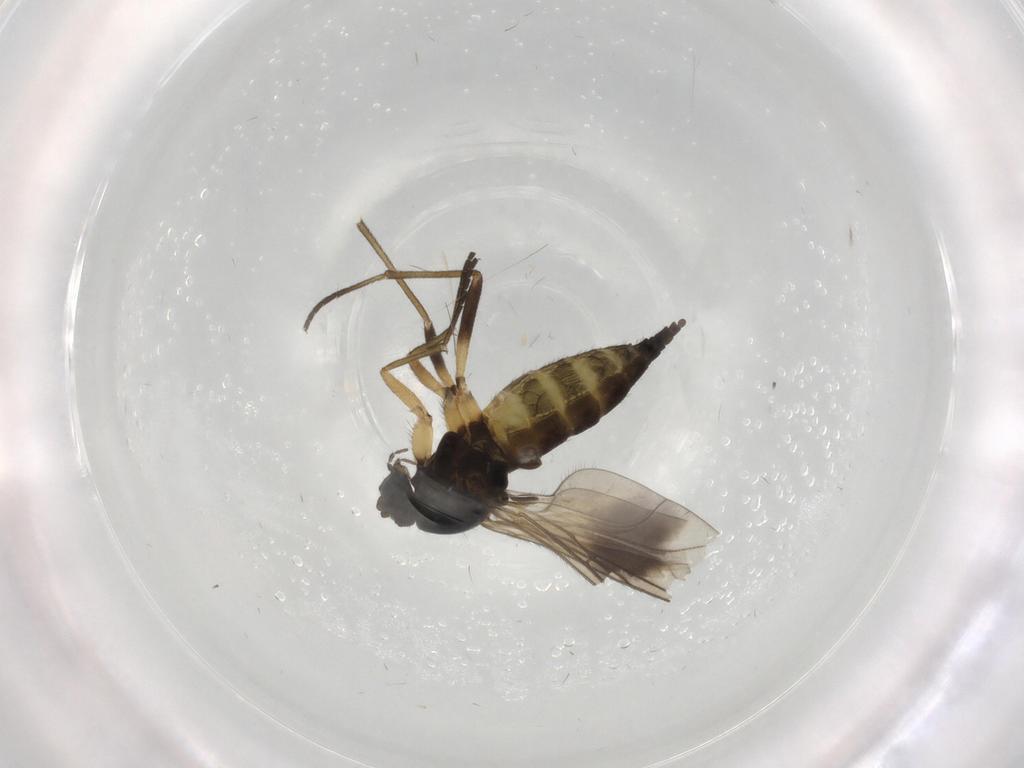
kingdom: Animalia
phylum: Arthropoda
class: Insecta
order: Diptera
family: Sciaridae
